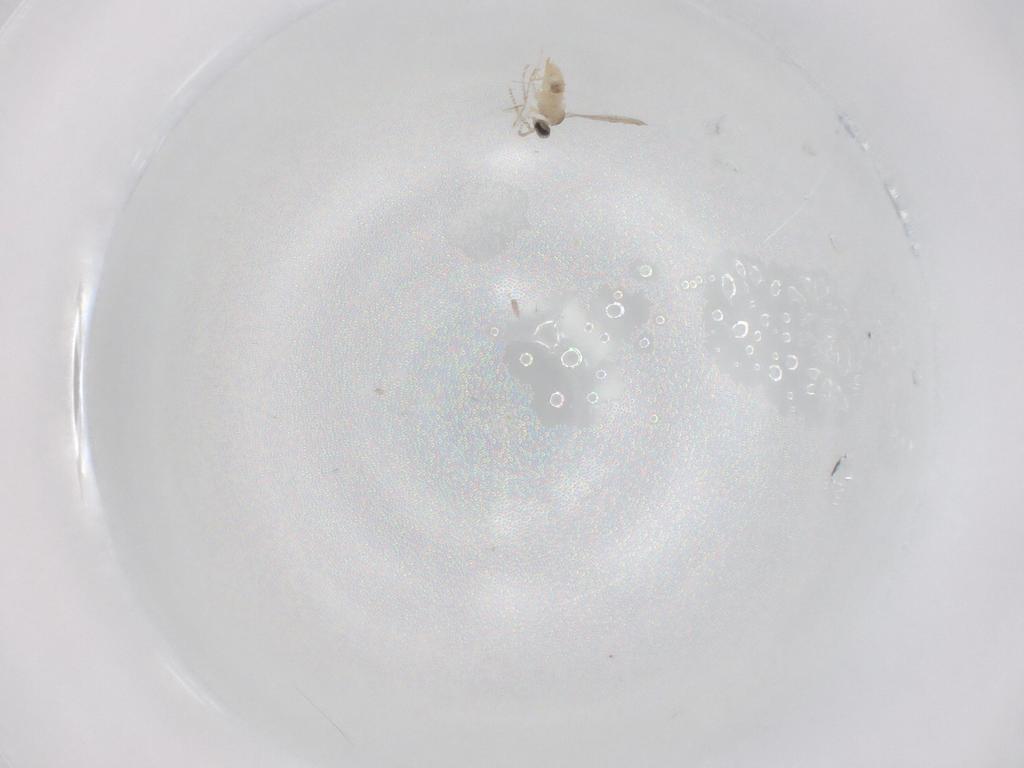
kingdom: Animalia
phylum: Arthropoda
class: Insecta
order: Diptera
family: Cecidomyiidae
